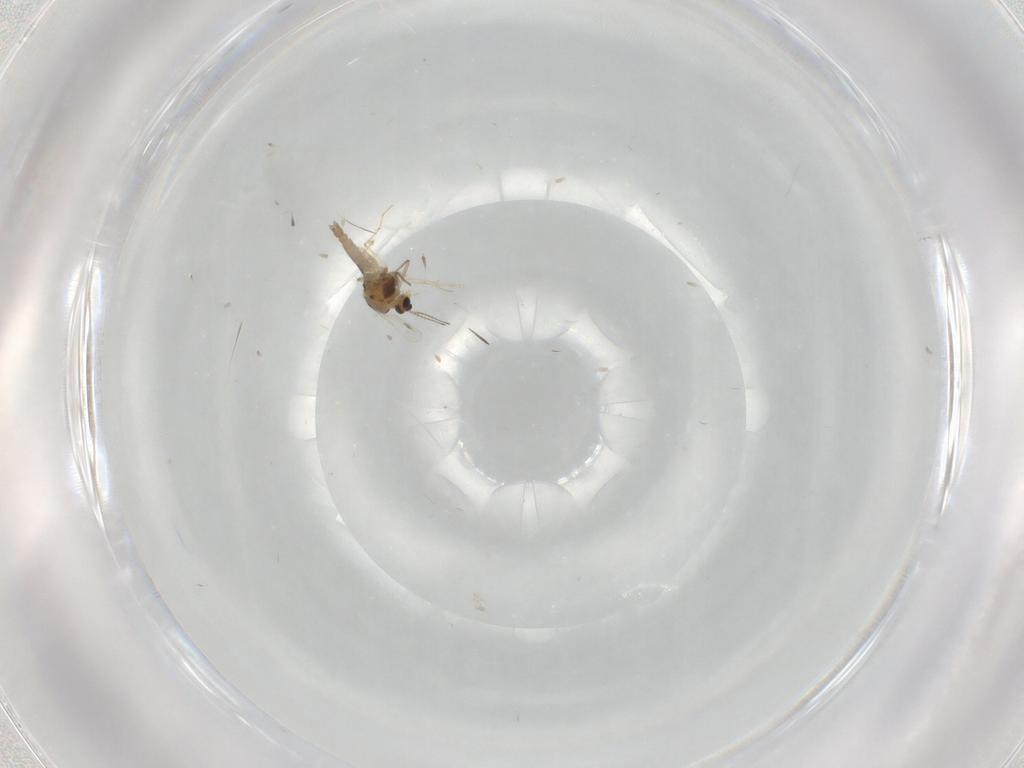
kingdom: Animalia
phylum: Arthropoda
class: Insecta
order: Diptera
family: Chironomidae
